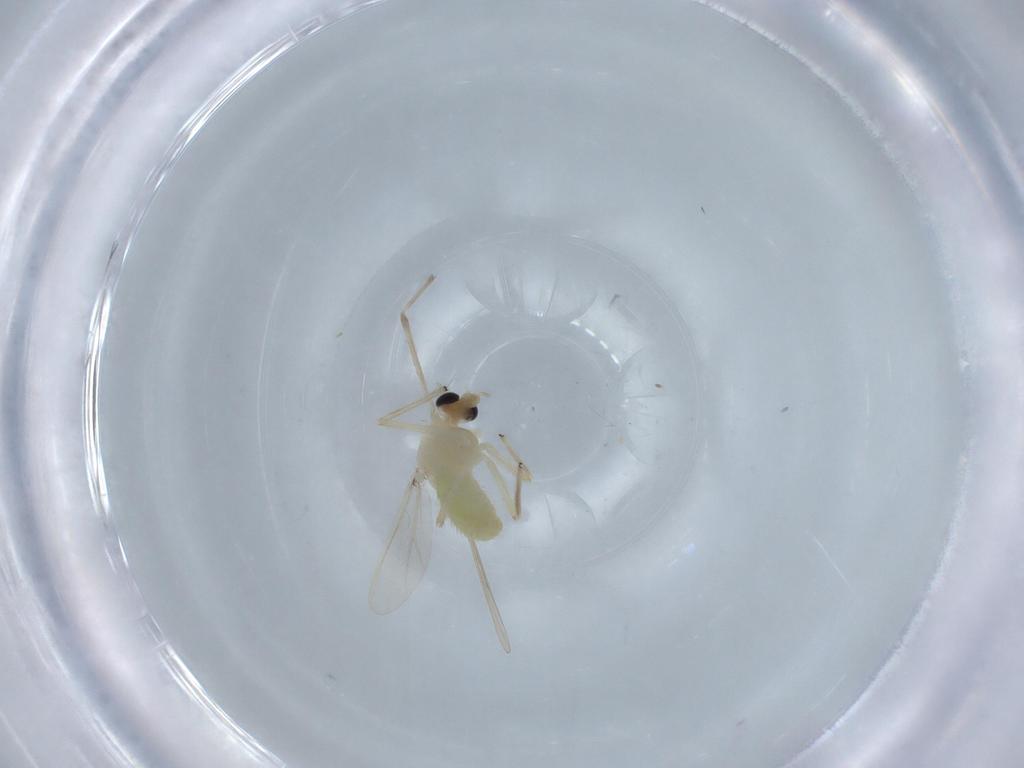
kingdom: Animalia
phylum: Arthropoda
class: Insecta
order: Diptera
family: Chironomidae
